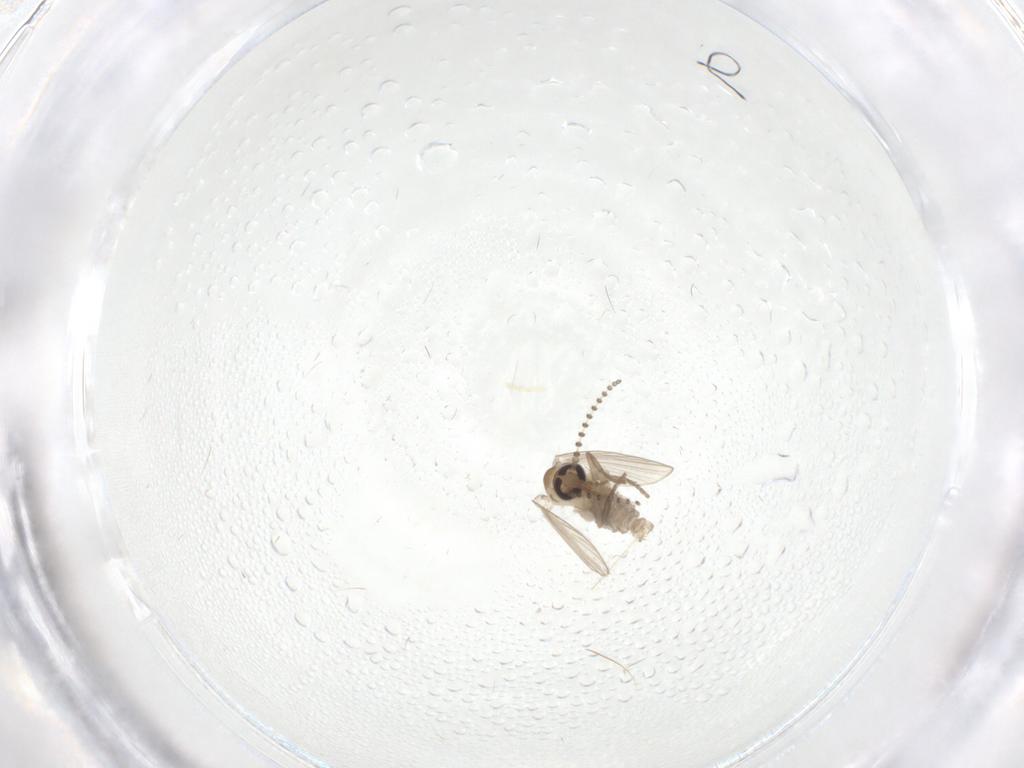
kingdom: Animalia
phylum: Arthropoda
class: Insecta
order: Diptera
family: Psychodidae
